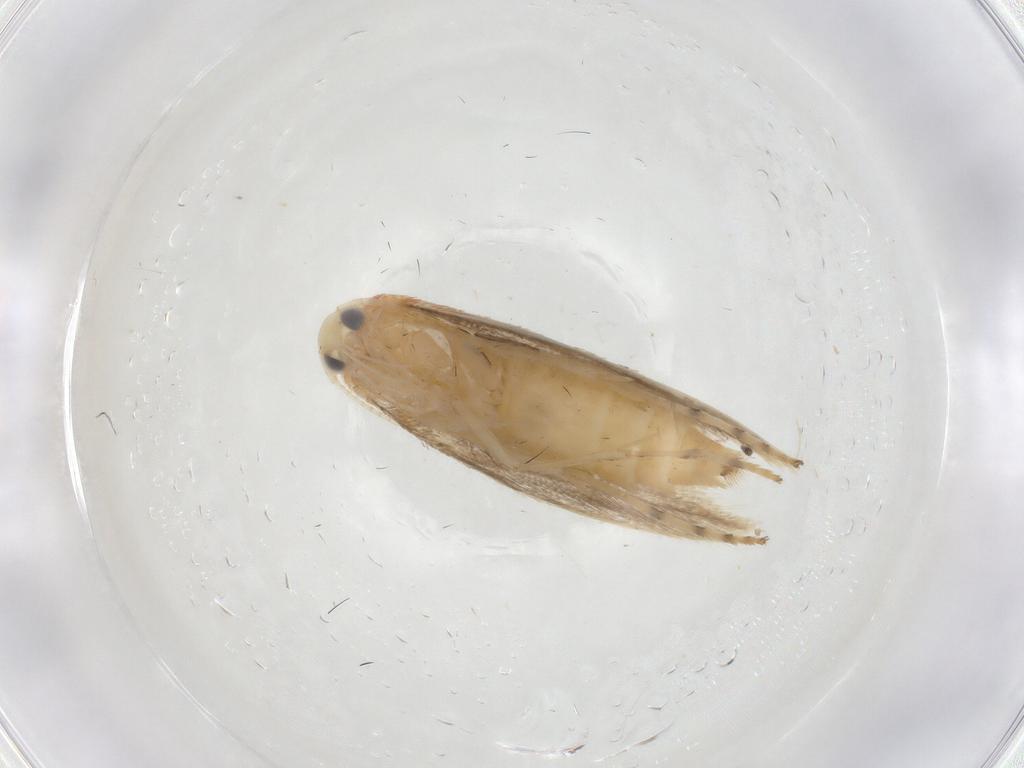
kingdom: Animalia
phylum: Arthropoda
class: Insecta
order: Lepidoptera
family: Gracillariidae
